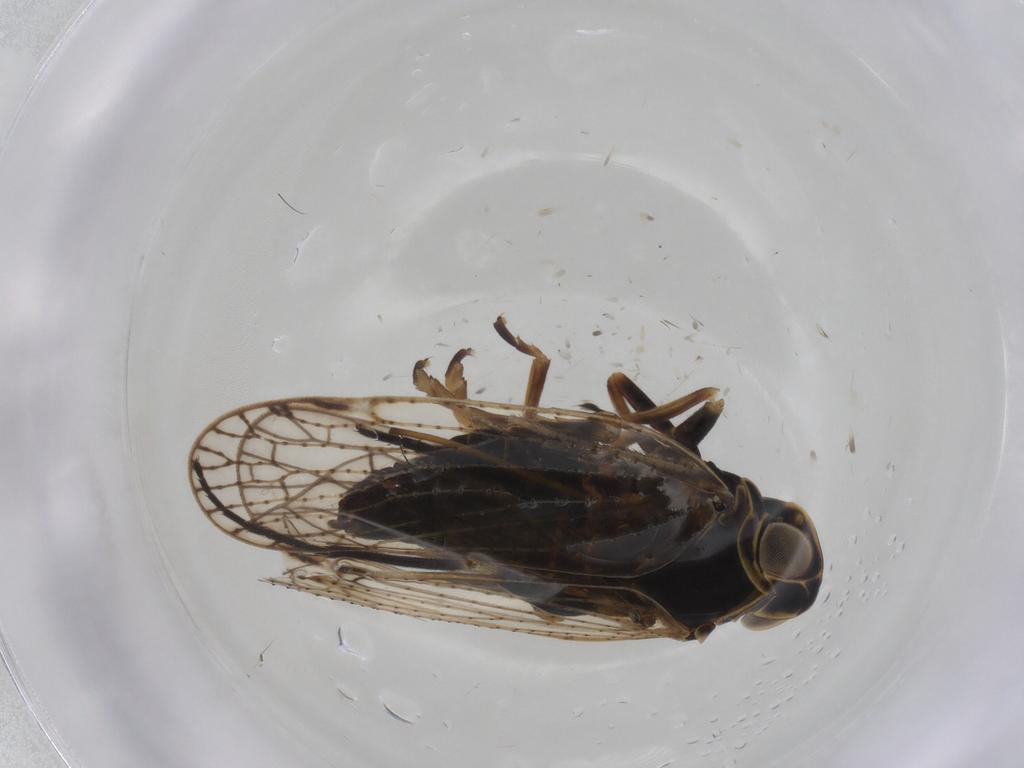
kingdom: Animalia
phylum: Arthropoda
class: Insecta
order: Hemiptera
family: Cixiidae
